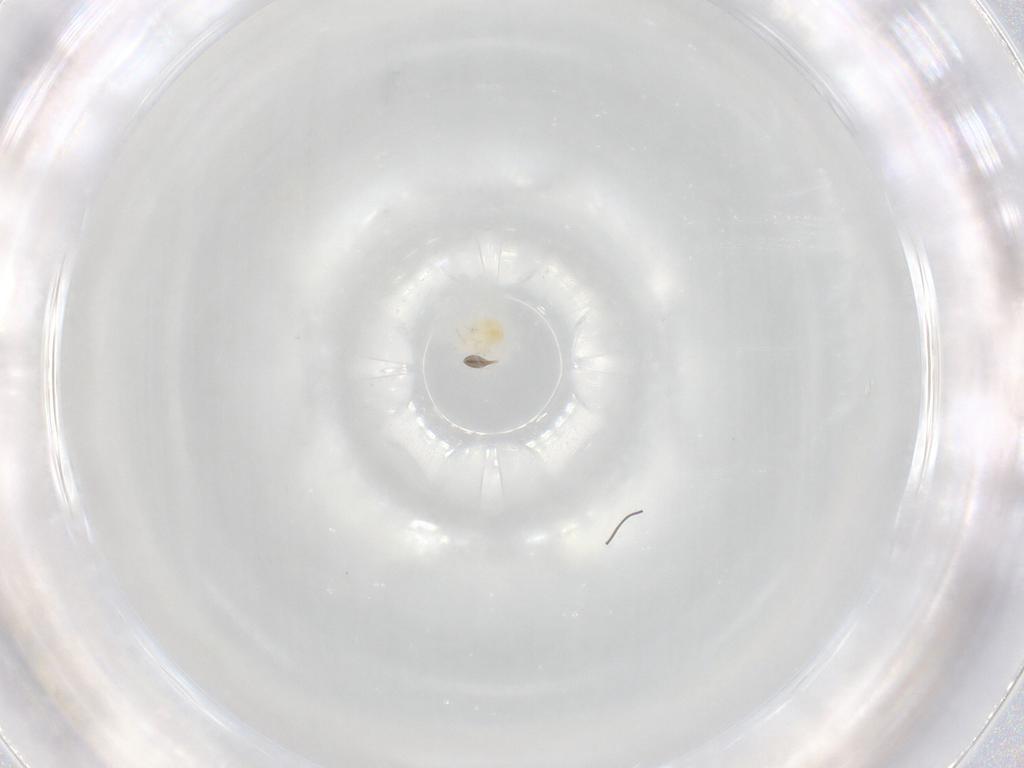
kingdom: Animalia
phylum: Arthropoda
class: Arachnida
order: Trombidiformes
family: Anystidae
